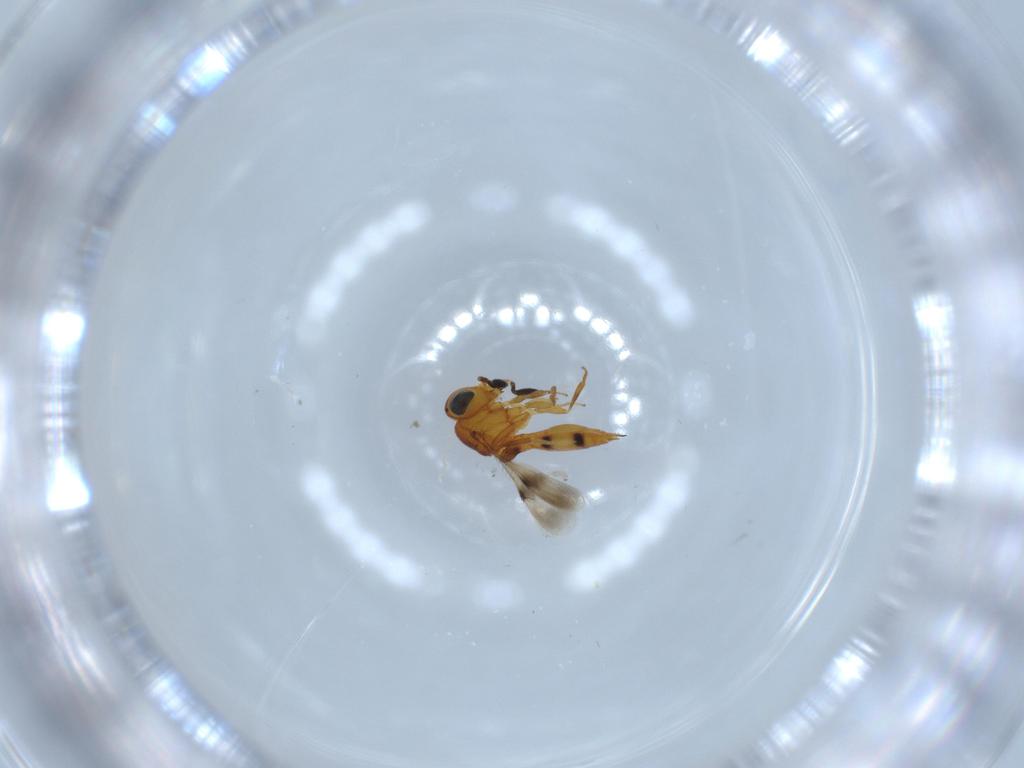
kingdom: Animalia
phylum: Arthropoda
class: Insecta
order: Hymenoptera
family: Scelionidae
